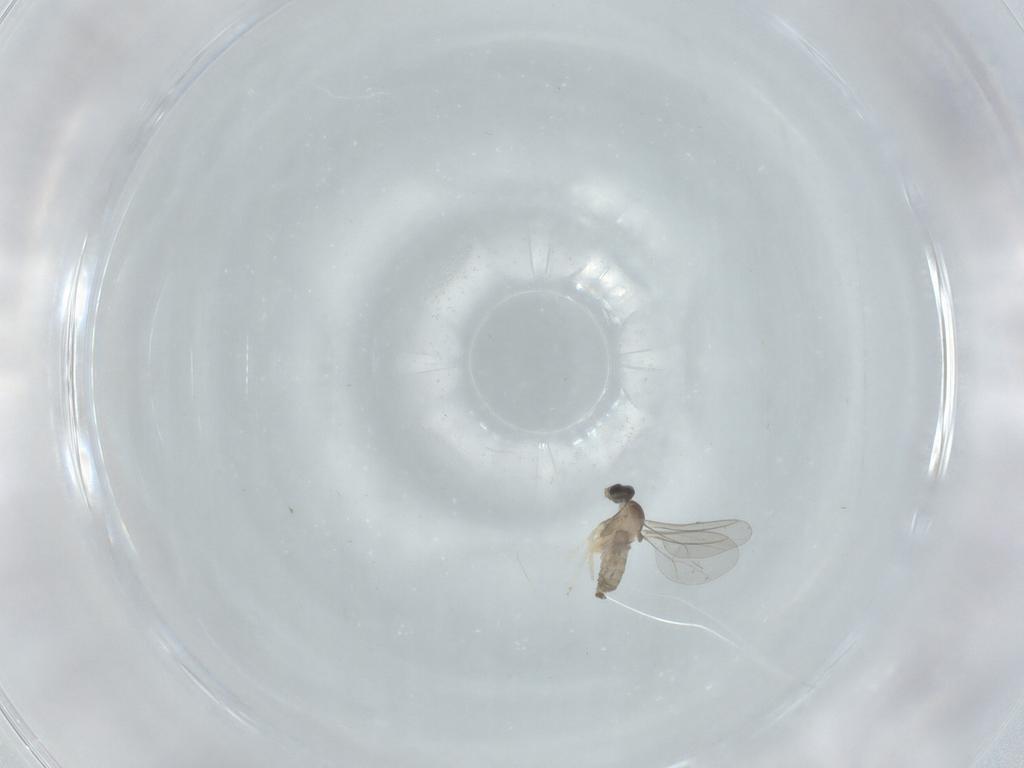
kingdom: Animalia
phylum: Arthropoda
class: Insecta
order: Diptera
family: Cecidomyiidae
